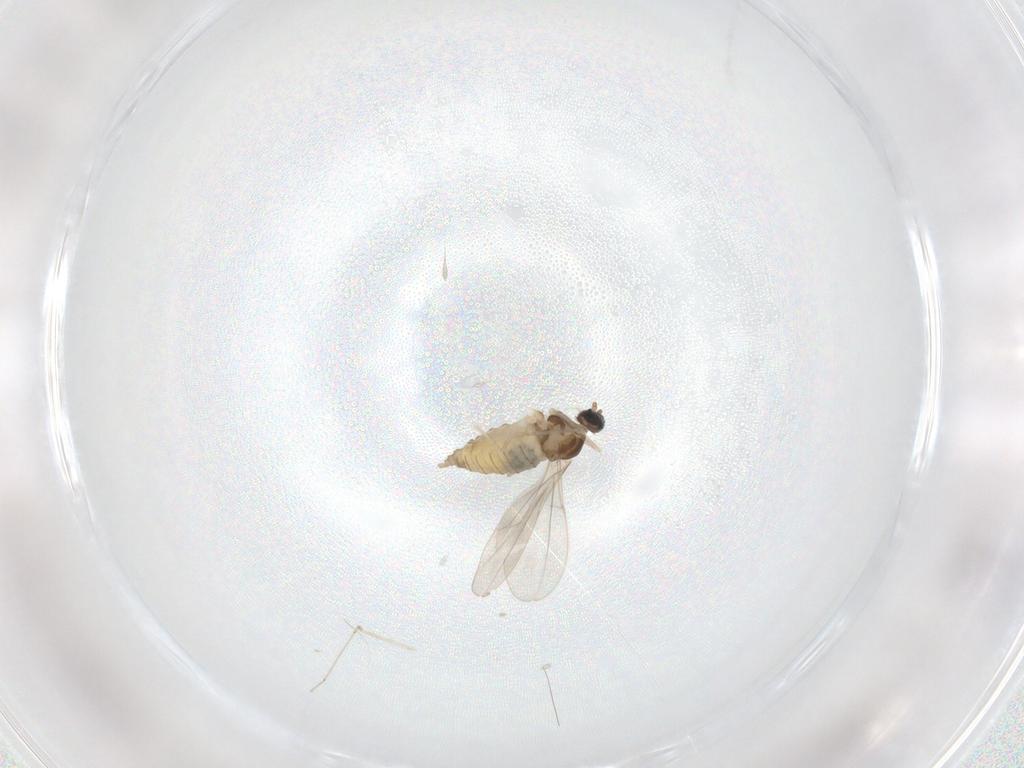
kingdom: Animalia
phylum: Arthropoda
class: Insecta
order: Diptera
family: Cecidomyiidae
